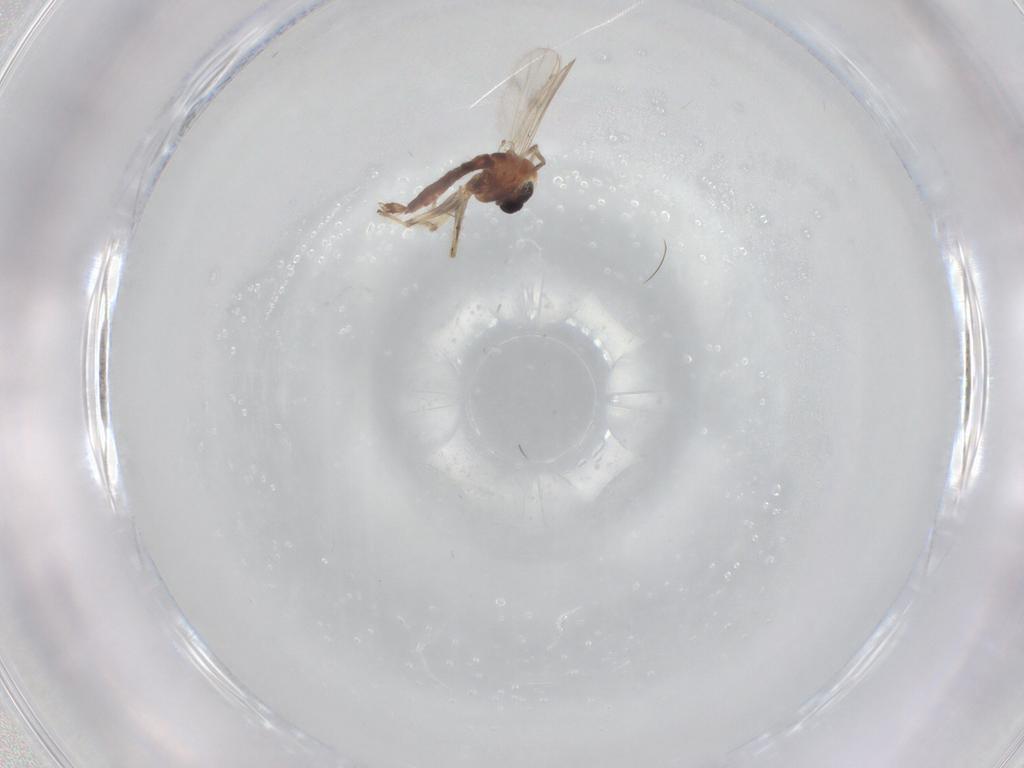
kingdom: Animalia
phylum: Arthropoda
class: Insecta
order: Diptera
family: Chironomidae
